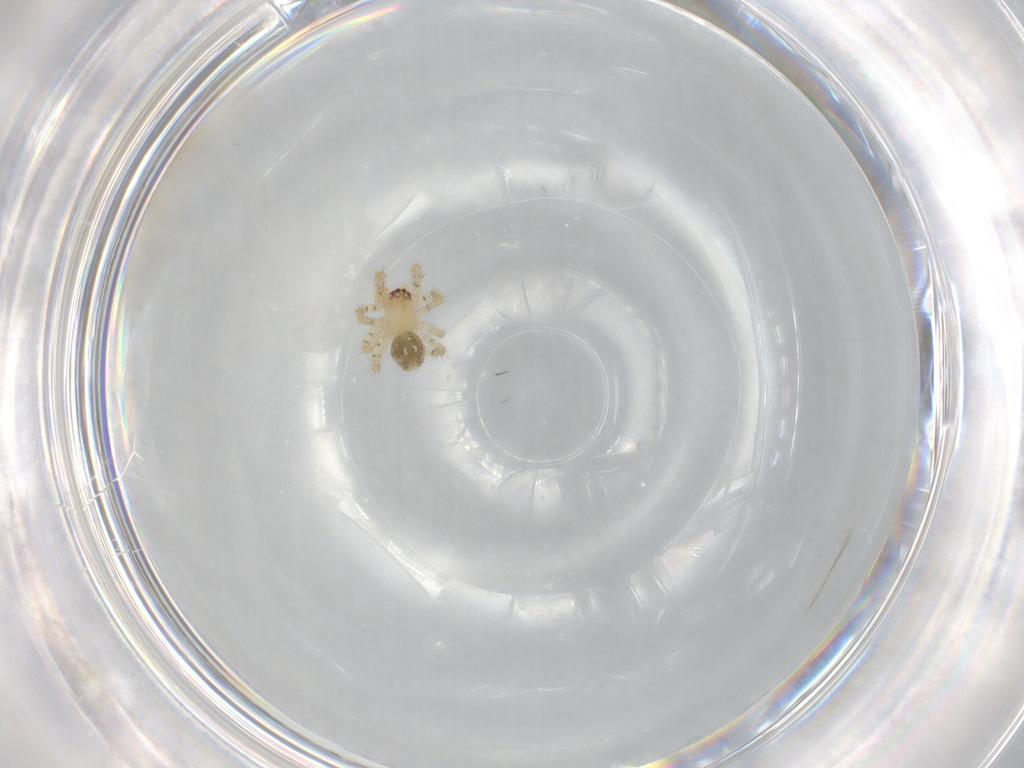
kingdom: Animalia
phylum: Arthropoda
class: Arachnida
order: Araneae
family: Theridiidae
